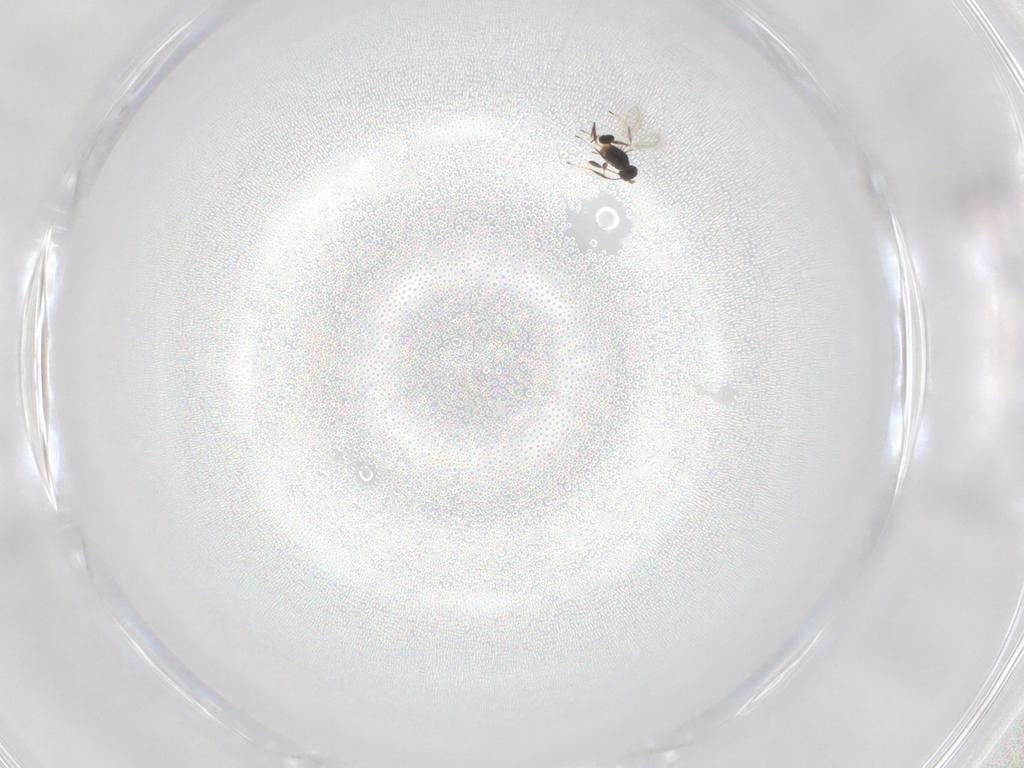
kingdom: Animalia
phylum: Arthropoda
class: Insecta
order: Hymenoptera
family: Mymaridae
